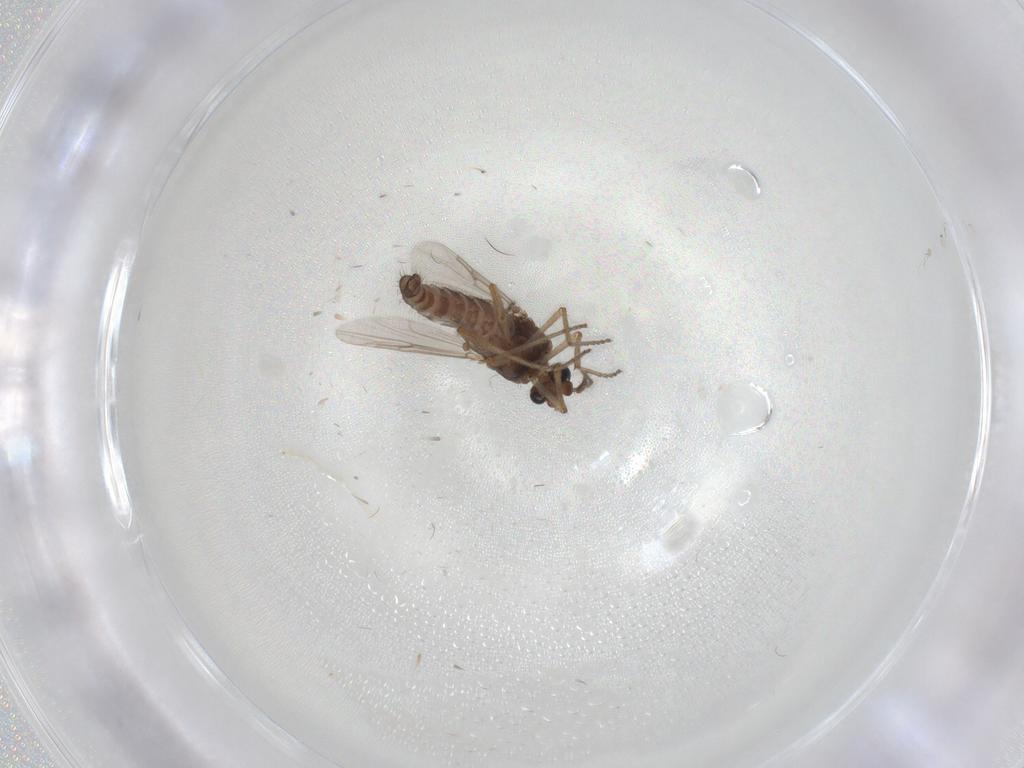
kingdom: Animalia
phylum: Arthropoda
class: Insecta
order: Diptera
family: Ceratopogonidae
